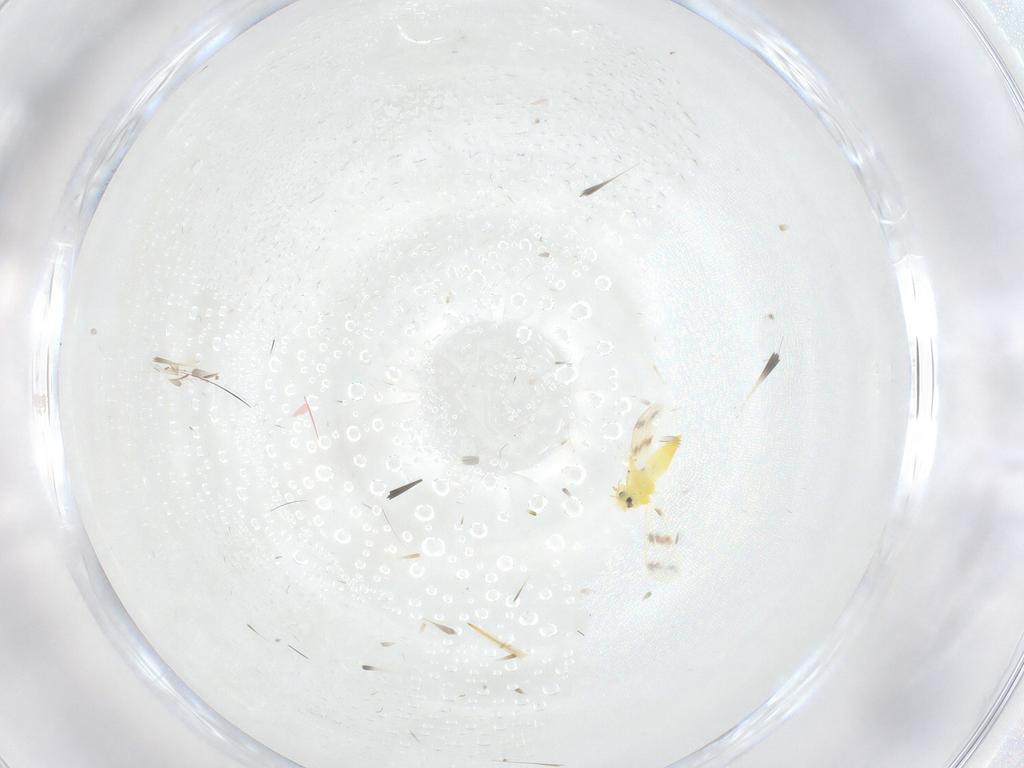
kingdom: Animalia
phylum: Arthropoda
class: Insecta
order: Hemiptera
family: Aleyrodidae
